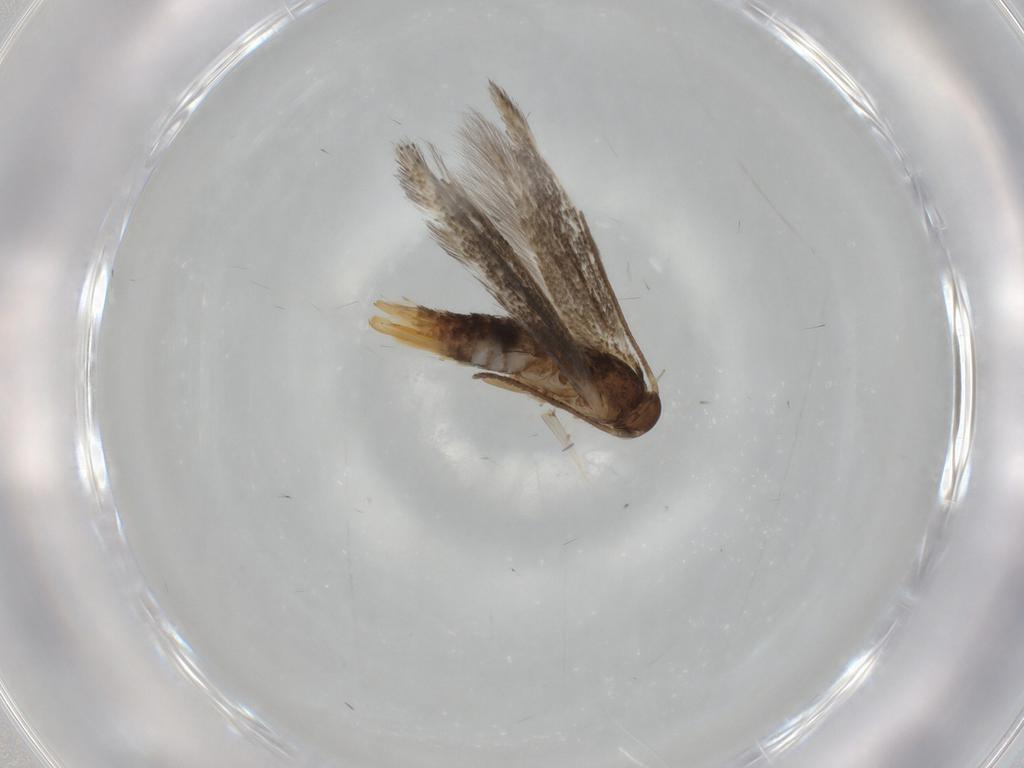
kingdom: Animalia
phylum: Arthropoda
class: Insecta
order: Lepidoptera
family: Elachistidae
